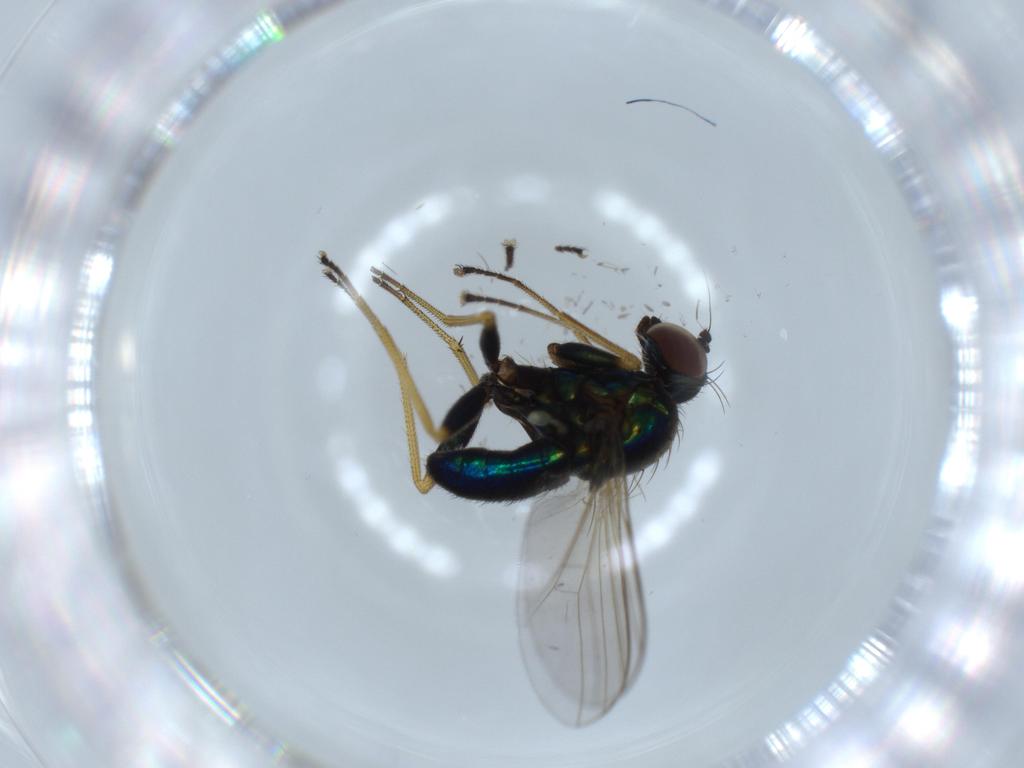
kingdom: Animalia
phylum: Arthropoda
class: Insecta
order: Diptera
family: Dolichopodidae
